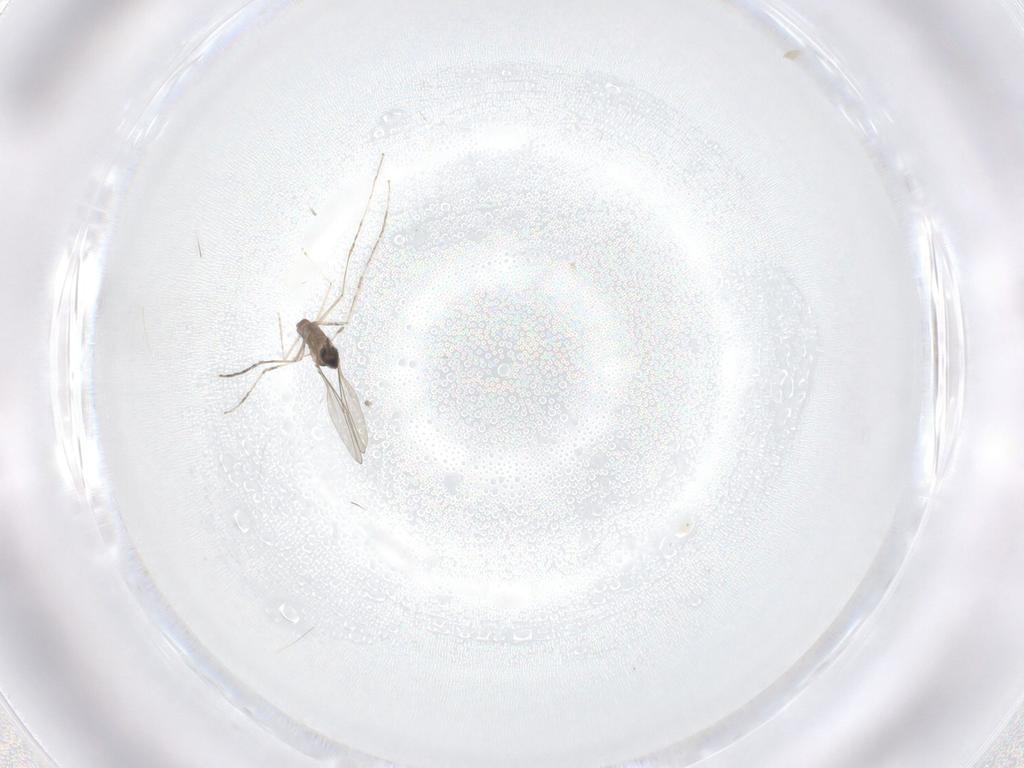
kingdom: Animalia
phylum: Arthropoda
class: Insecta
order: Diptera
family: Cecidomyiidae
